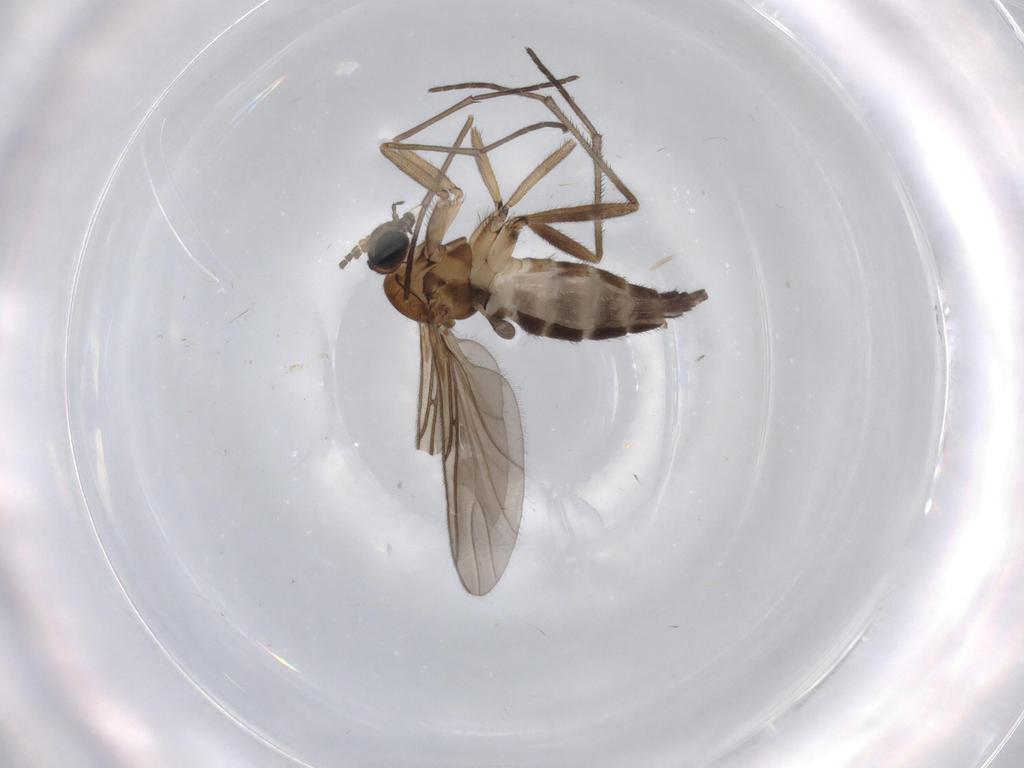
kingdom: Animalia
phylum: Arthropoda
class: Insecta
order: Diptera
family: Sciaridae
